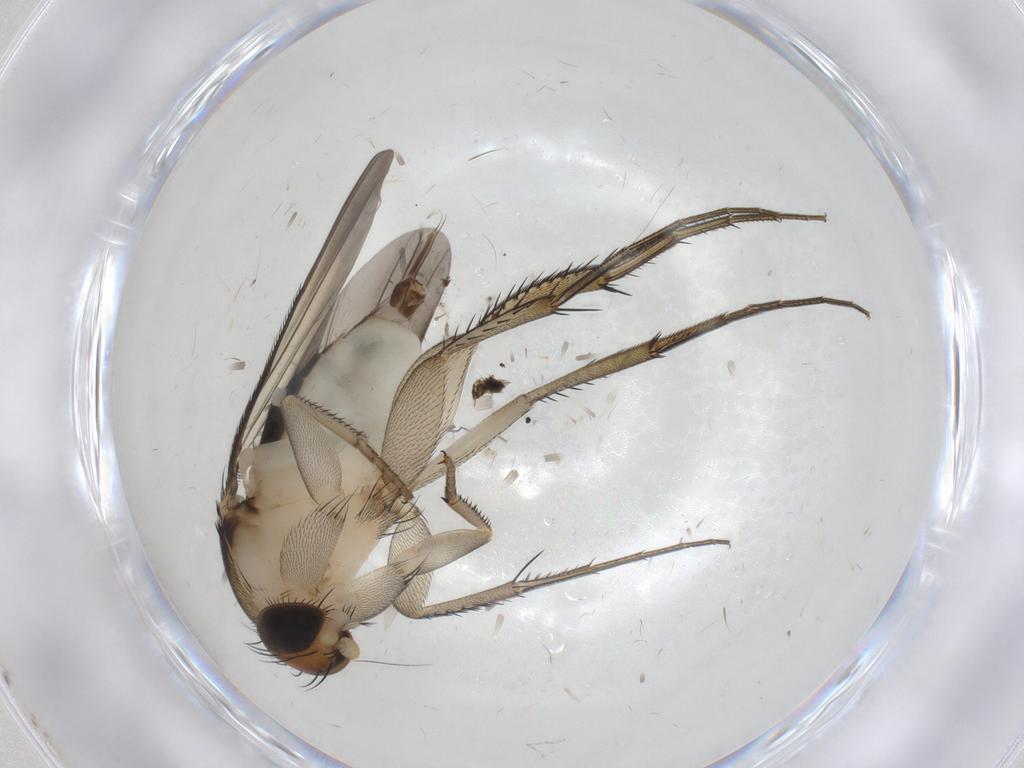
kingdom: Animalia
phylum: Arthropoda
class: Insecta
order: Diptera
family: Phoridae
